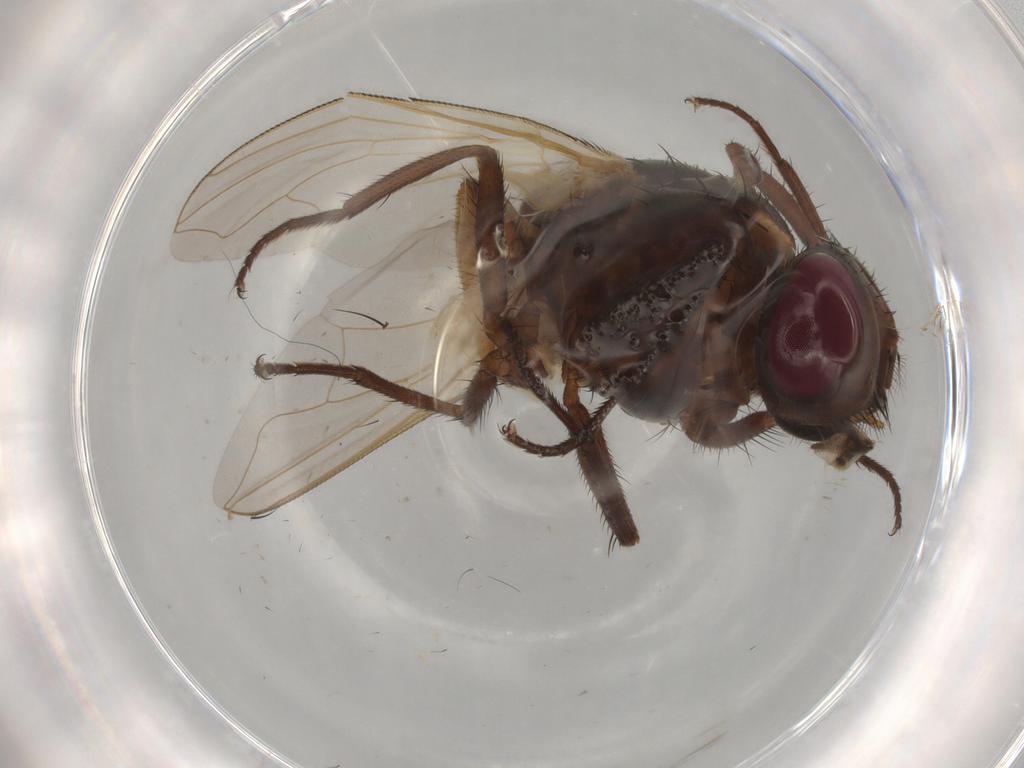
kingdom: Animalia
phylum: Arthropoda
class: Insecta
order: Diptera
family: Muscidae
